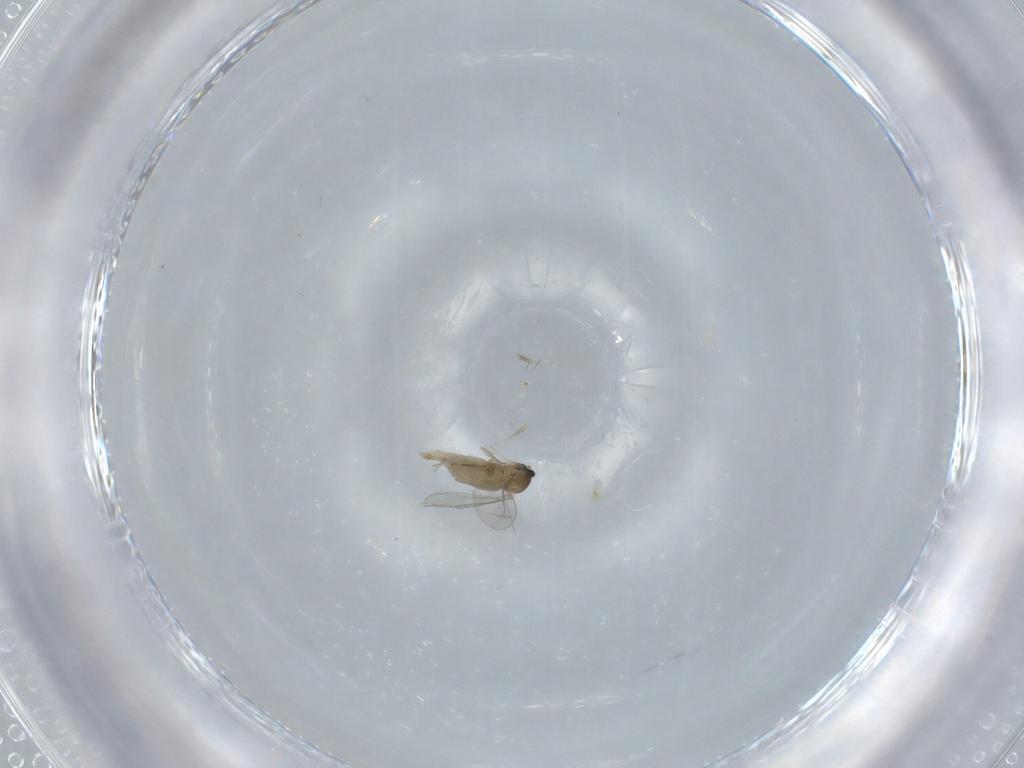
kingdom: Animalia
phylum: Arthropoda
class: Insecta
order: Diptera
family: Cecidomyiidae
